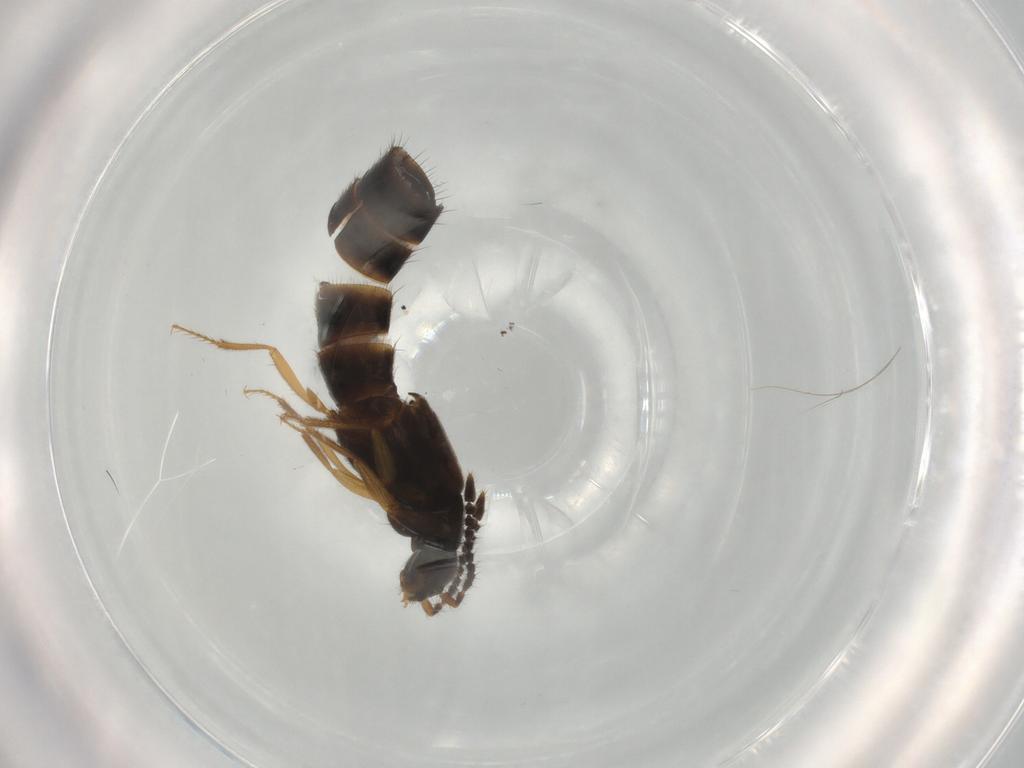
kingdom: Animalia
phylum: Arthropoda
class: Insecta
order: Coleoptera
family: Staphylinidae
